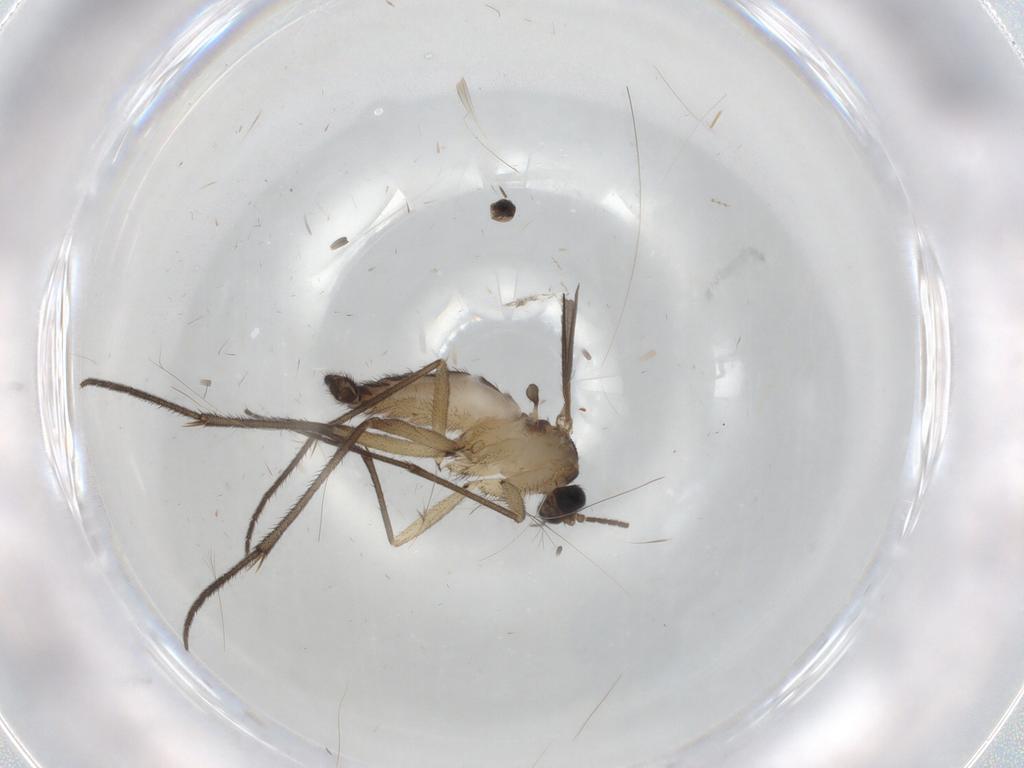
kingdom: Animalia
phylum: Arthropoda
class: Insecta
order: Diptera
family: Sciaridae
